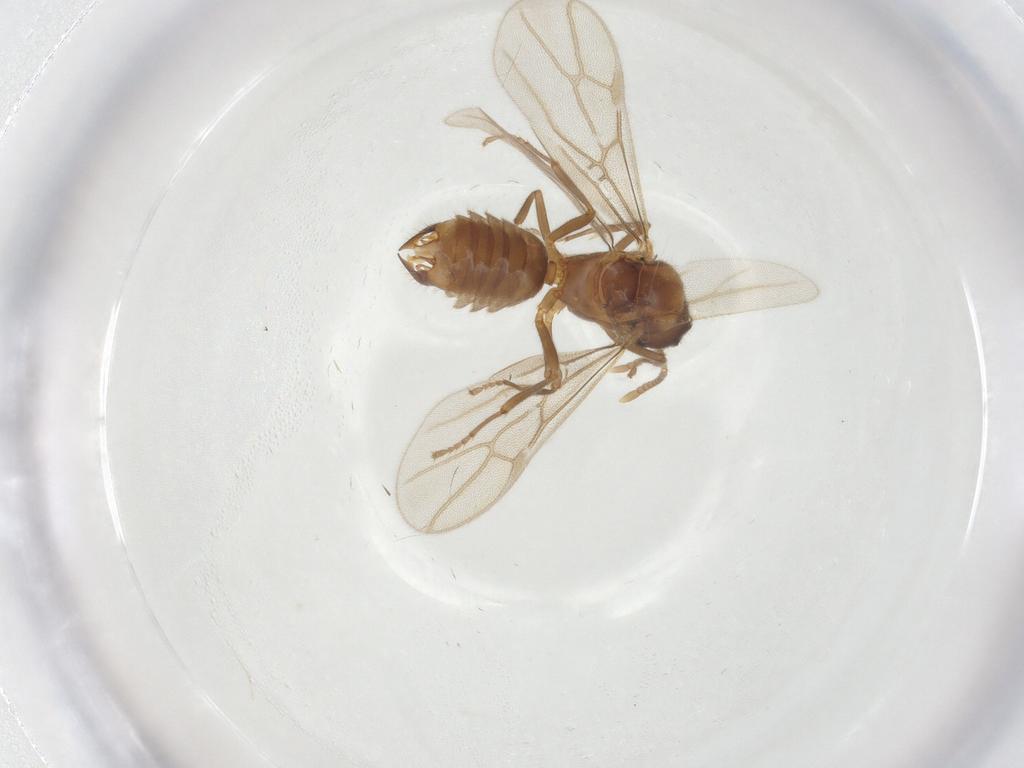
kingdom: Animalia
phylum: Arthropoda
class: Insecta
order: Hymenoptera
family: Formicidae
